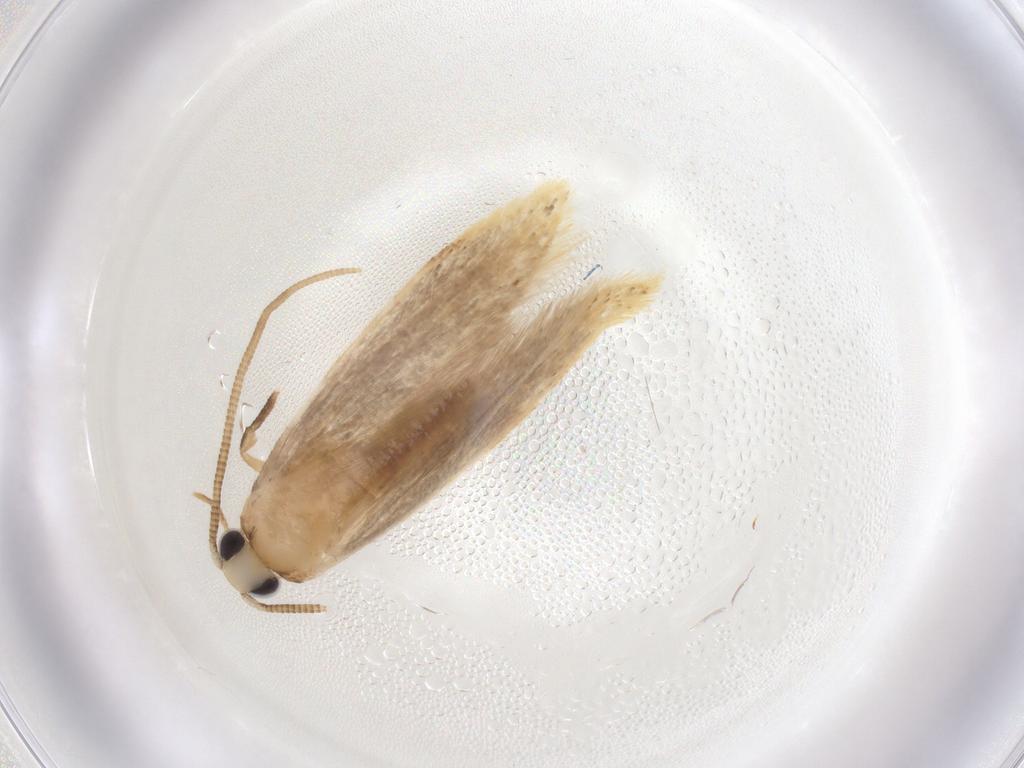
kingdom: Animalia
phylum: Arthropoda
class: Insecta
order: Lepidoptera
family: Tineidae
